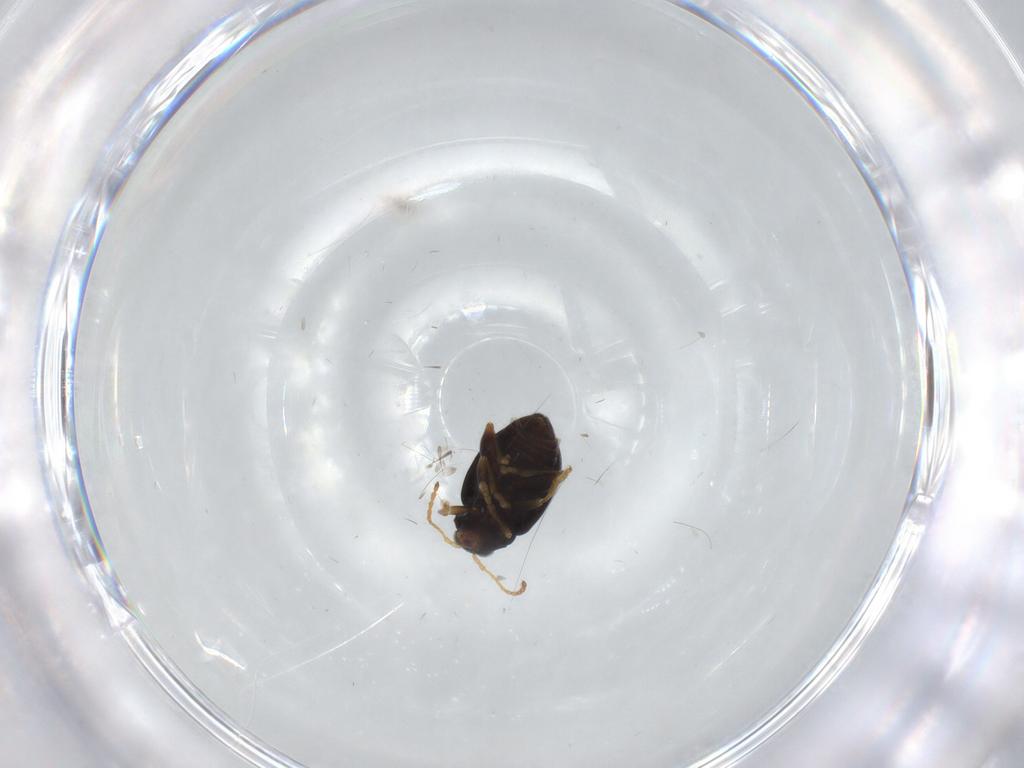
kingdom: Animalia
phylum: Arthropoda
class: Insecta
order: Coleoptera
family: Chrysomelidae
